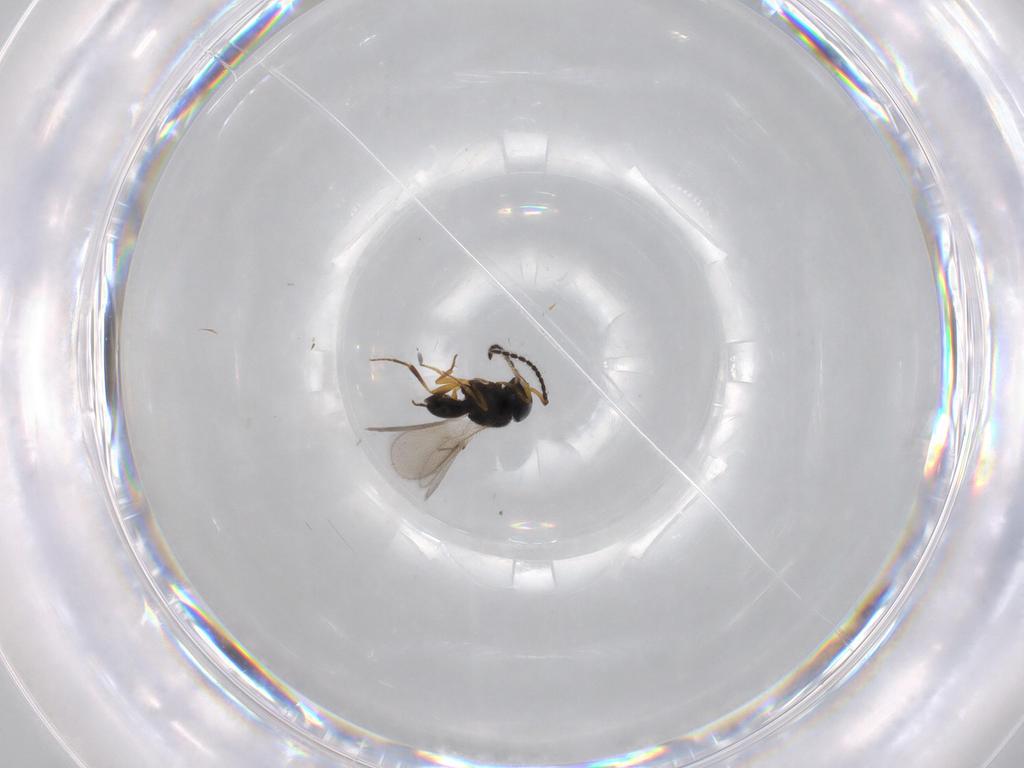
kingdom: Animalia
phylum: Arthropoda
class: Insecta
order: Hymenoptera
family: Scelionidae
